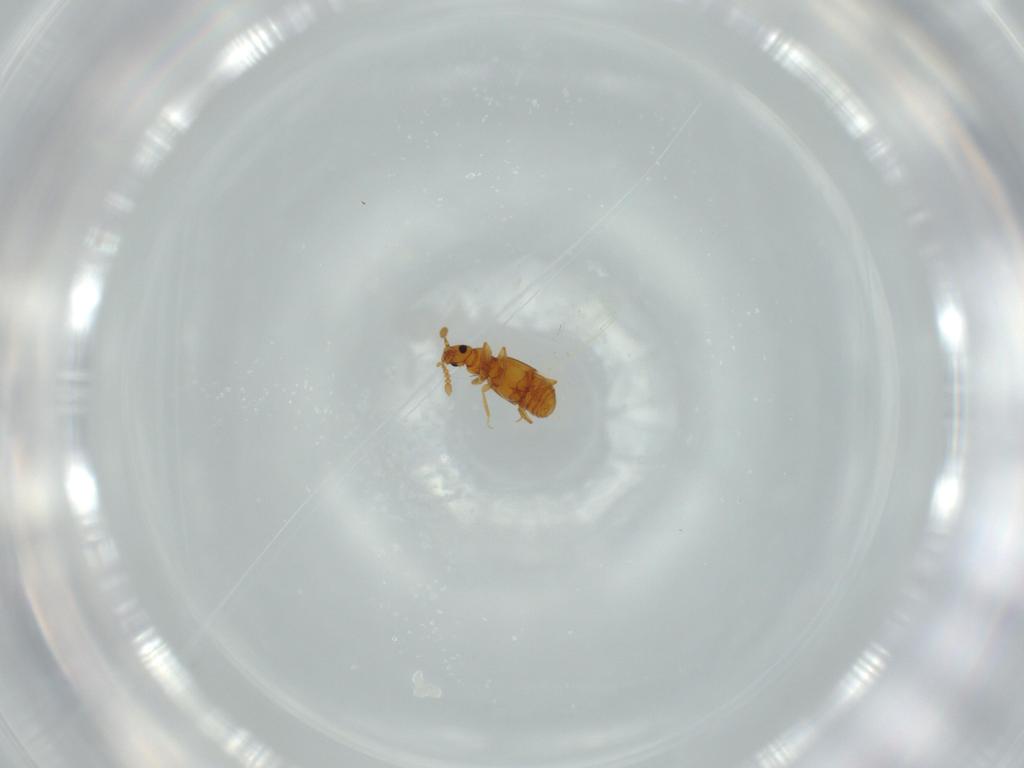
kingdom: Animalia
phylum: Arthropoda
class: Insecta
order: Coleoptera
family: Staphylinidae
